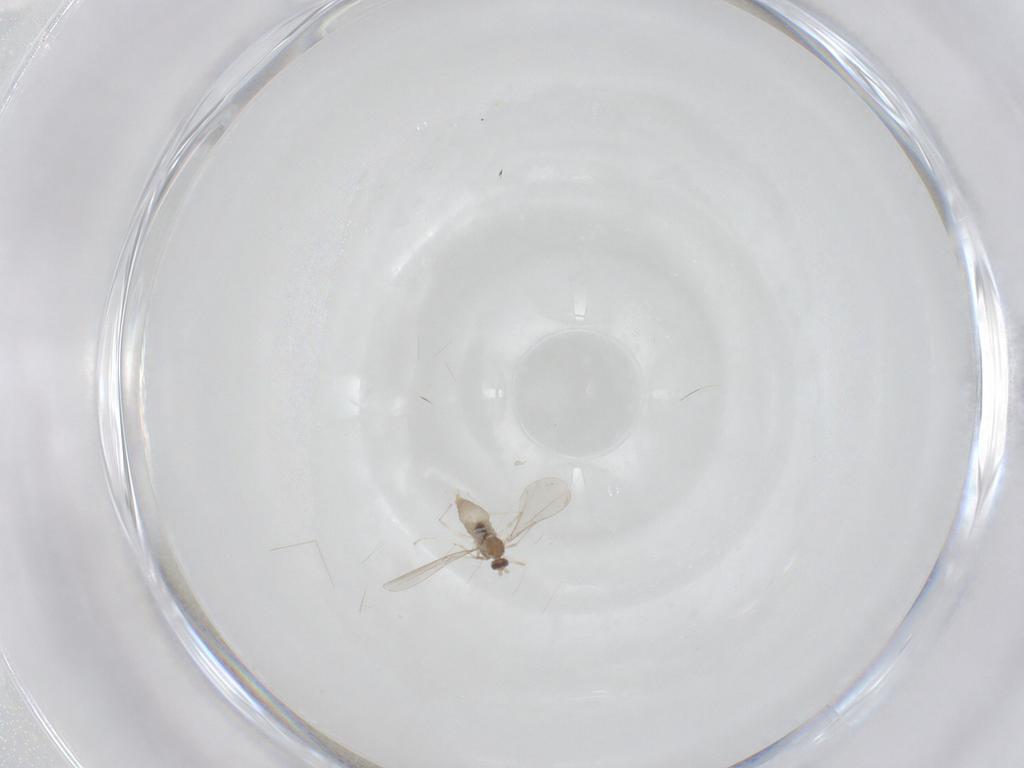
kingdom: Animalia
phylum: Arthropoda
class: Insecta
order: Diptera
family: Cecidomyiidae
